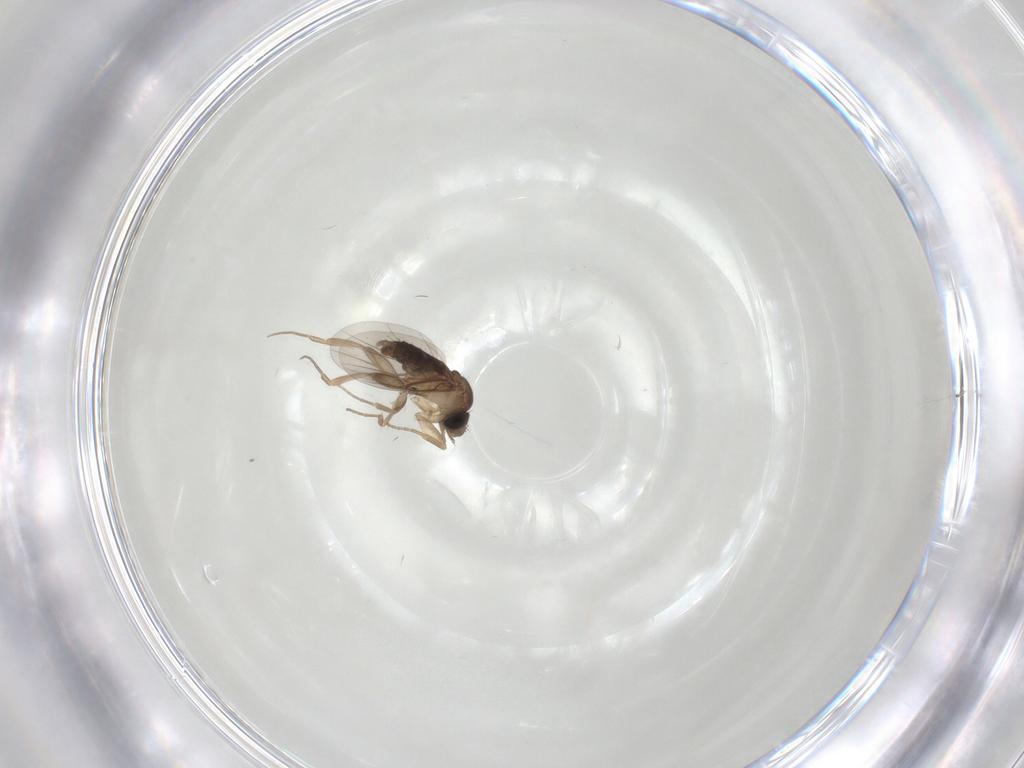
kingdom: Animalia
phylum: Arthropoda
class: Insecta
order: Diptera
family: Phoridae
